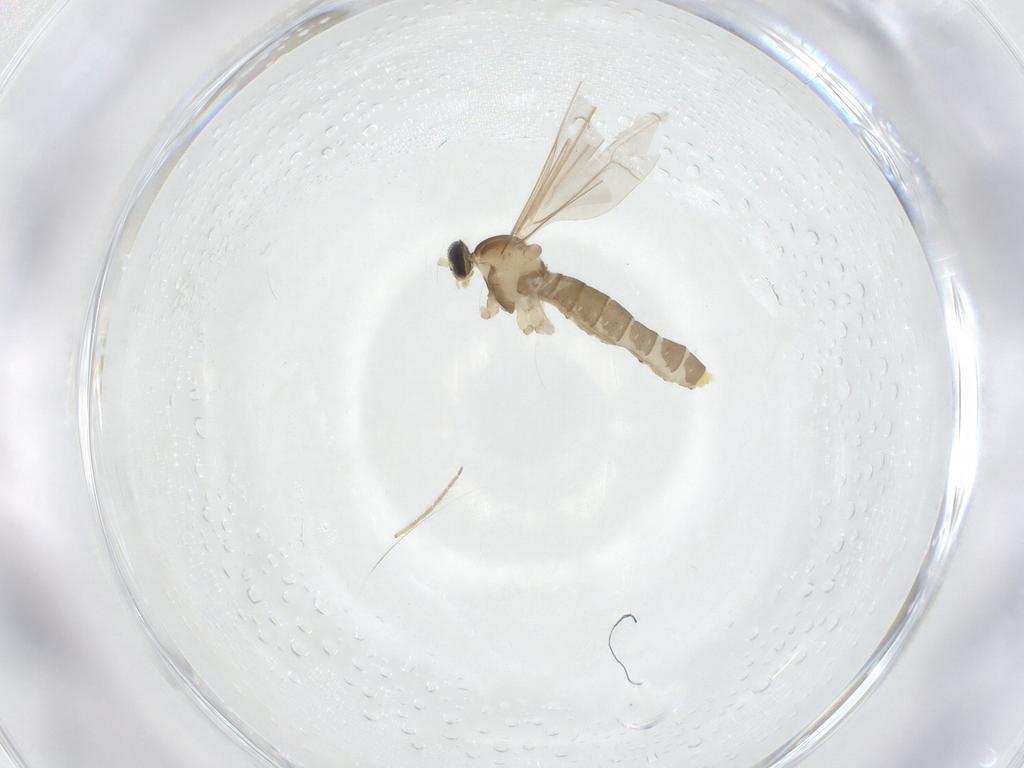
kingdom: Animalia
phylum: Arthropoda
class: Insecta
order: Diptera
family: Cecidomyiidae
